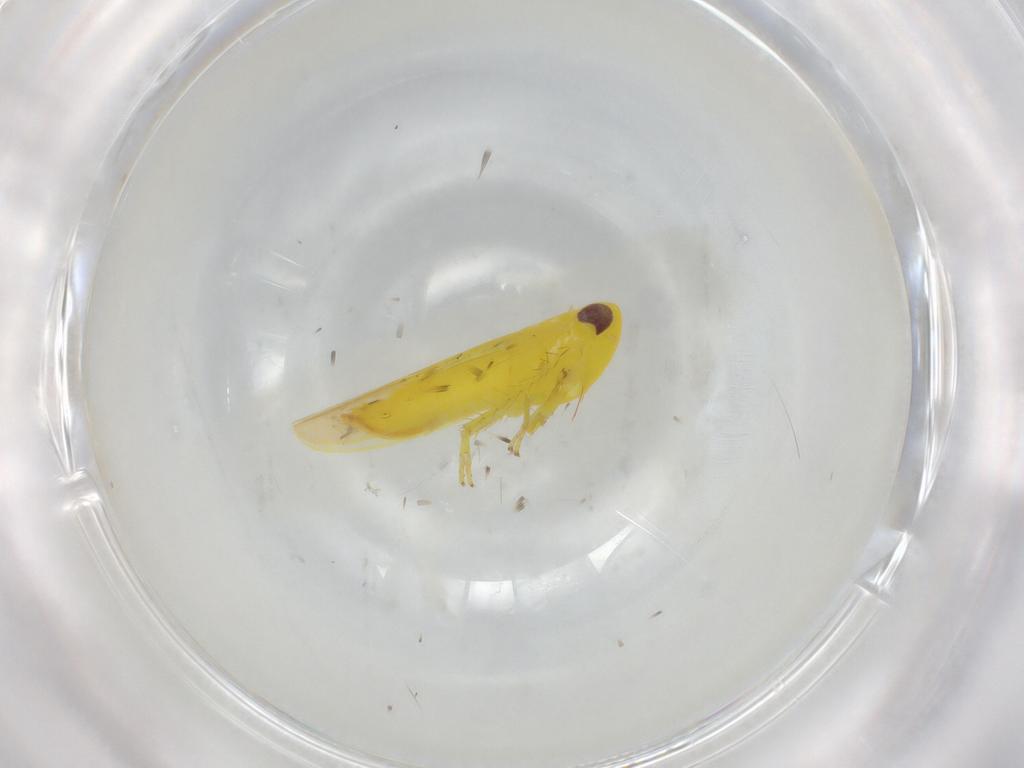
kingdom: Animalia
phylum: Arthropoda
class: Insecta
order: Hemiptera
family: Cicadellidae
